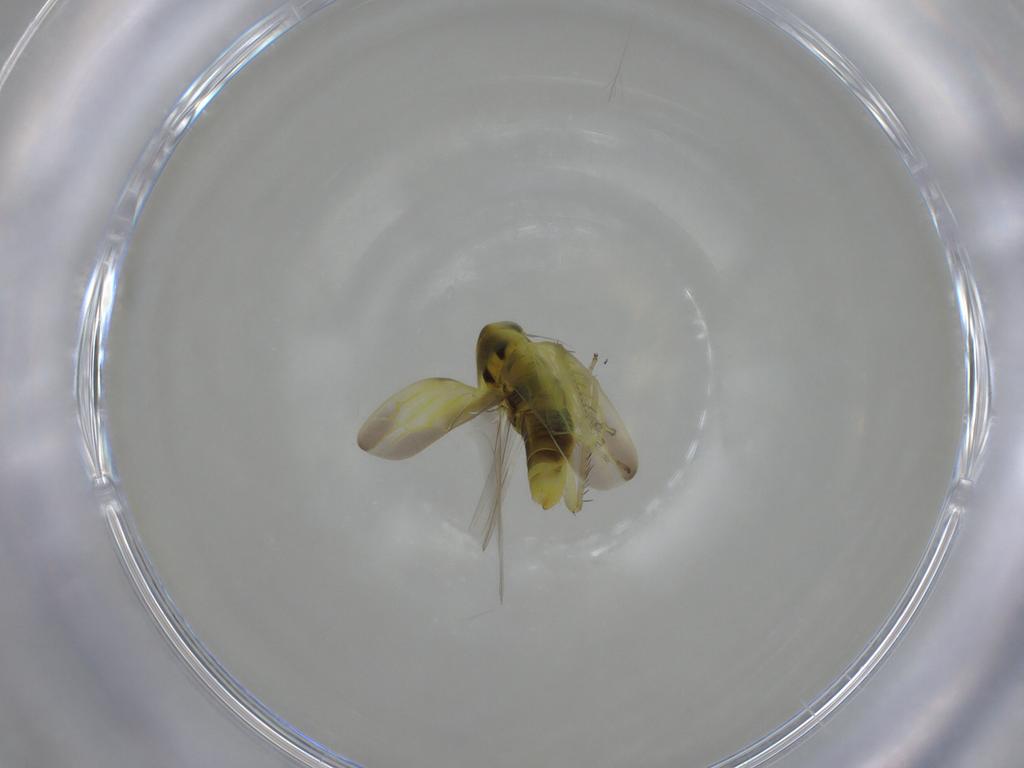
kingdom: Animalia
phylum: Arthropoda
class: Insecta
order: Hemiptera
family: Cicadellidae
